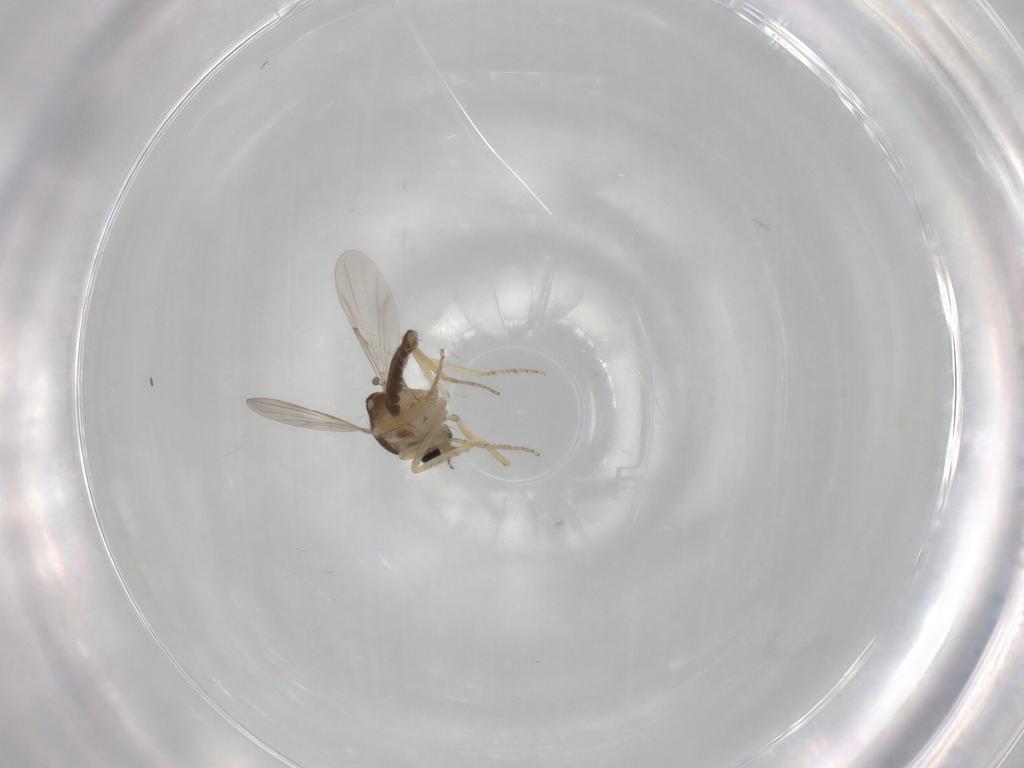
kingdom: Animalia
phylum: Arthropoda
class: Insecta
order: Diptera
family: Ceratopogonidae
